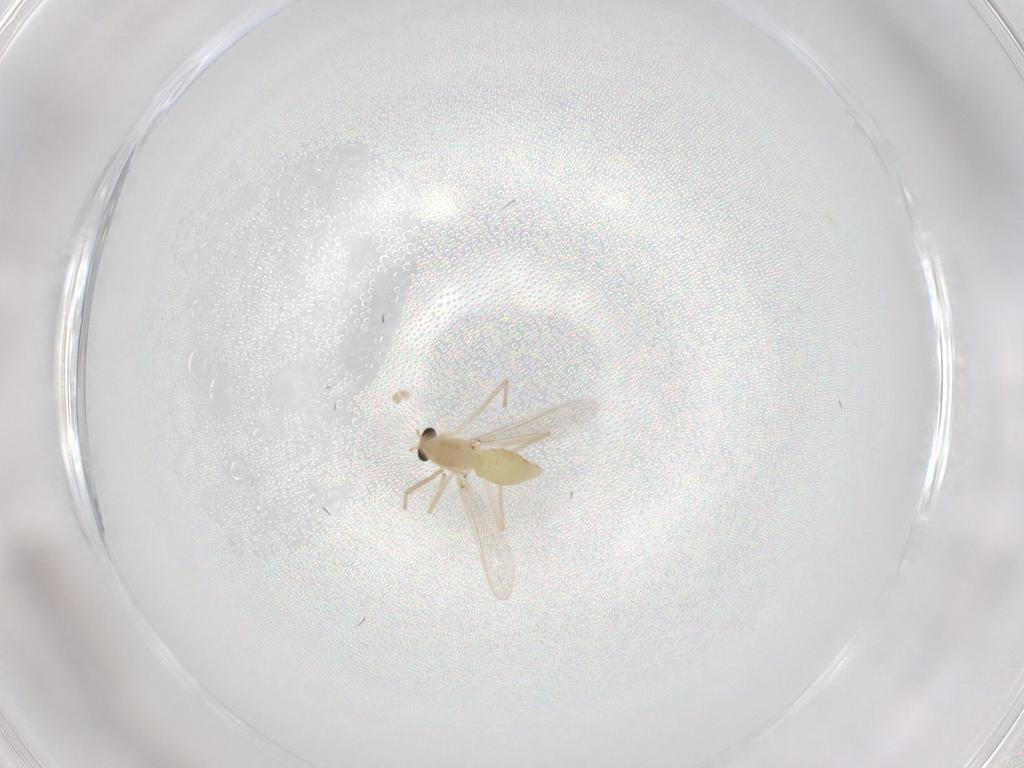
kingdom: Animalia
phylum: Arthropoda
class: Insecta
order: Diptera
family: Chironomidae
